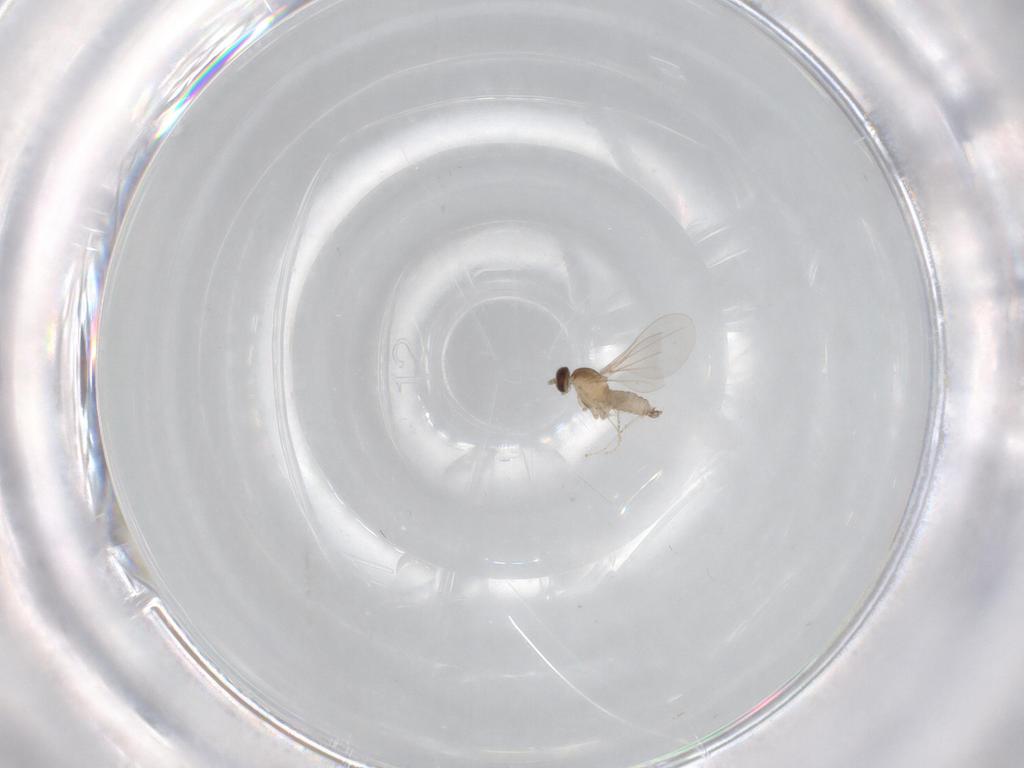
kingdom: Animalia
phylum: Arthropoda
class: Insecta
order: Diptera
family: Cecidomyiidae
